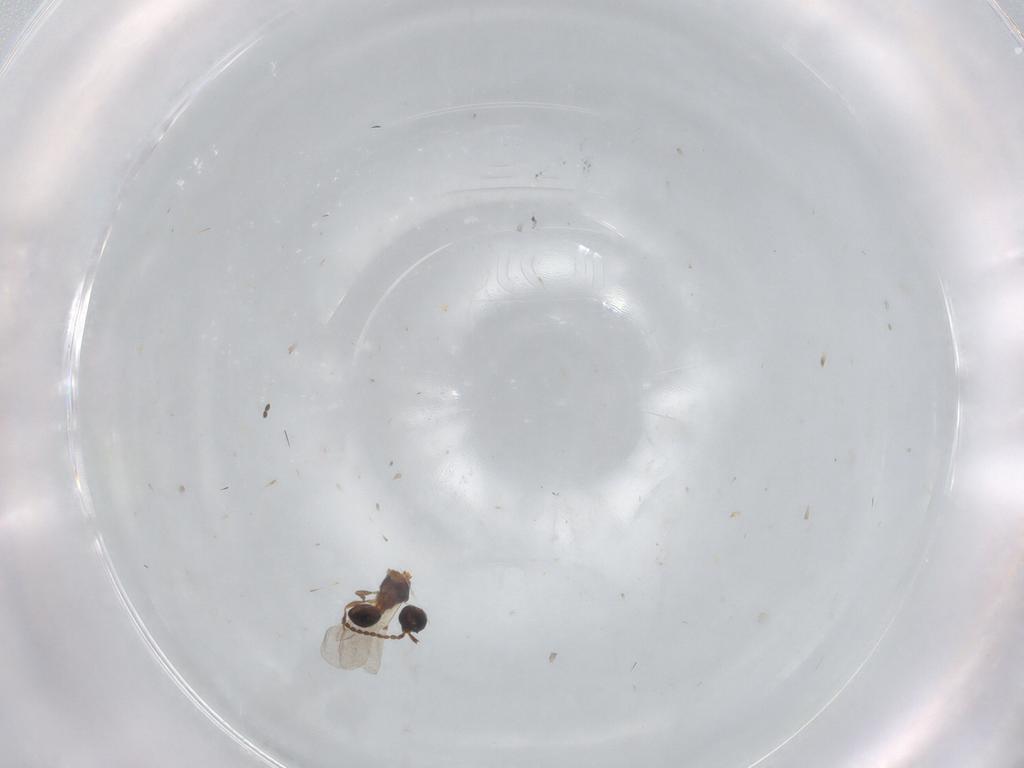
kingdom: Animalia
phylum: Arthropoda
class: Insecta
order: Hymenoptera
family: Diapriidae
